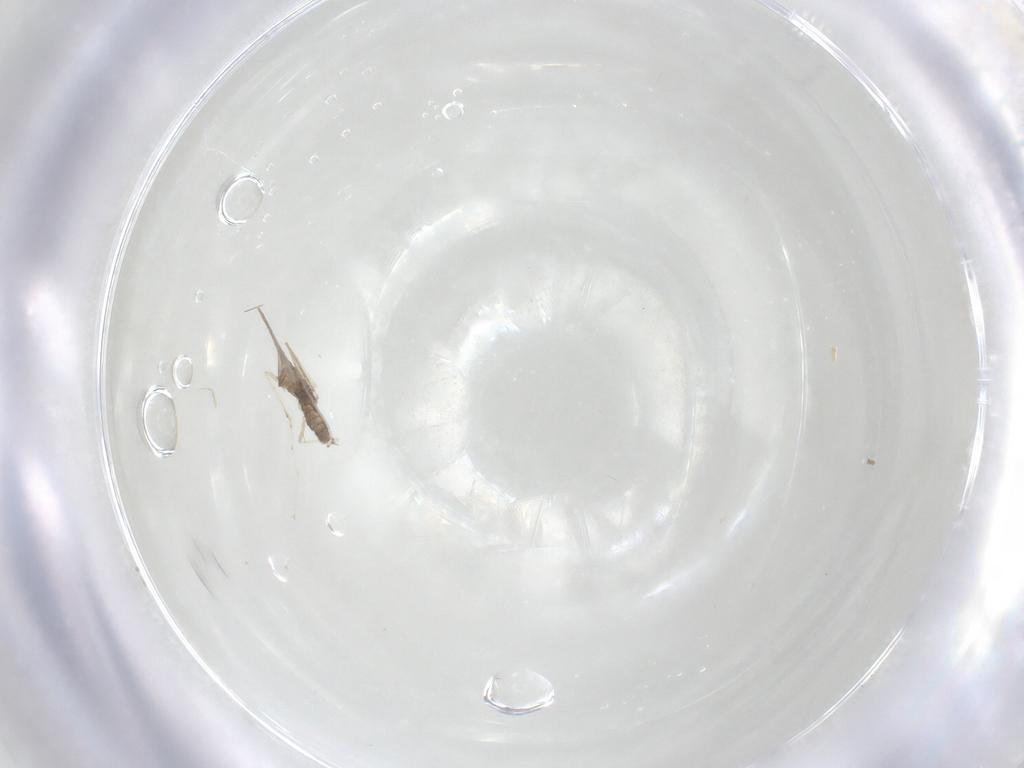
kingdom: Animalia
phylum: Arthropoda
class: Insecta
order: Diptera
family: Cecidomyiidae
